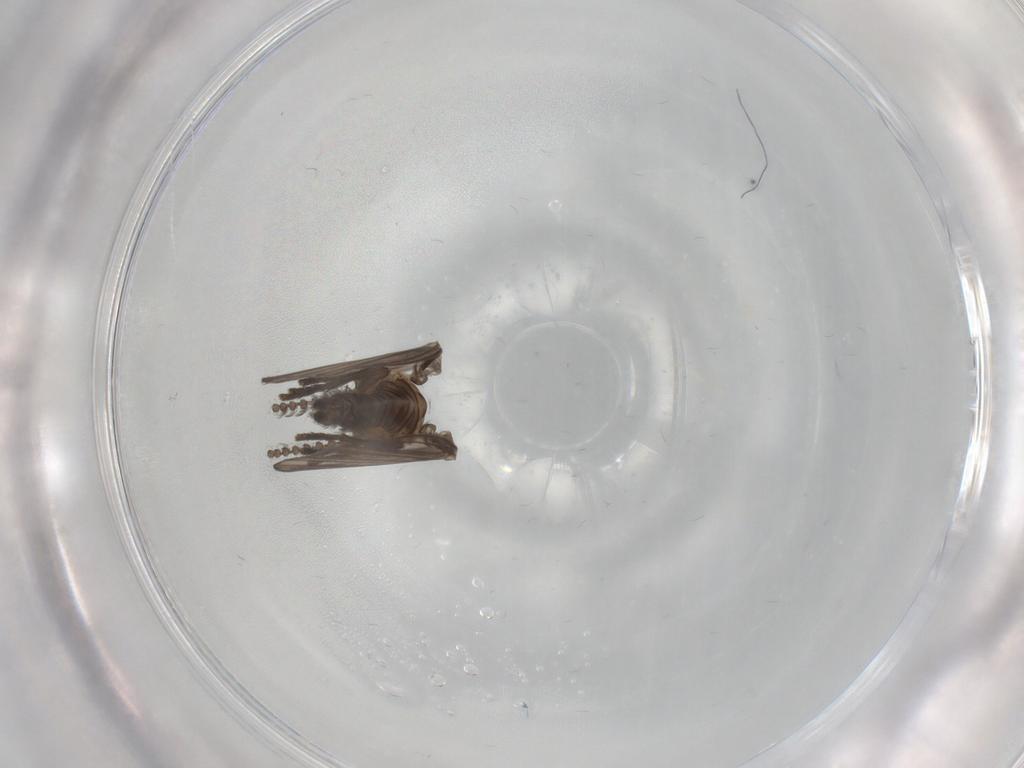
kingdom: Animalia
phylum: Arthropoda
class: Insecta
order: Diptera
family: Psychodidae
